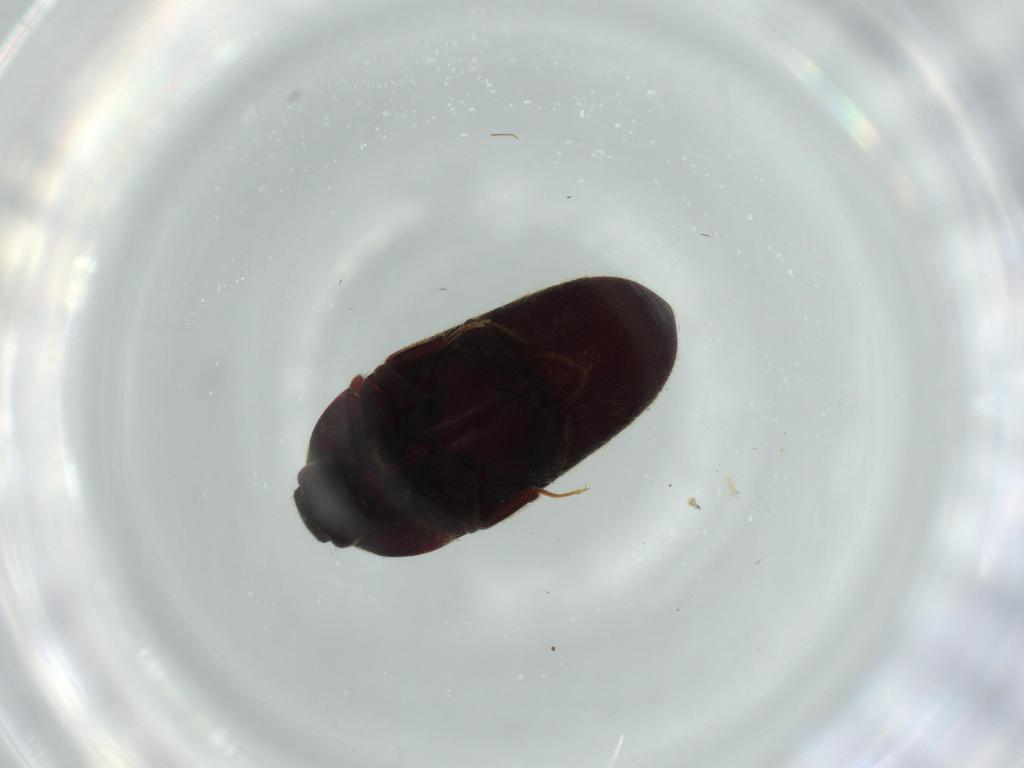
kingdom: Animalia
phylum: Arthropoda
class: Insecta
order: Coleoptera
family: Throscidae
